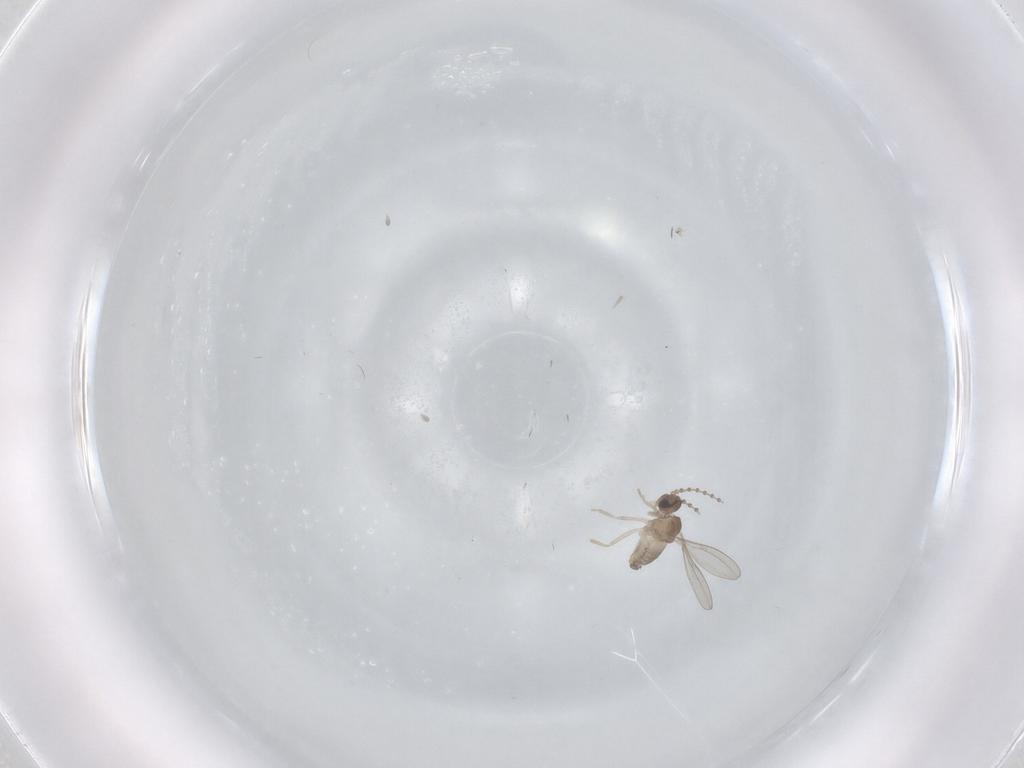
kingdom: Animalia
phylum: Arthropoda
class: Insecta
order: Diptera
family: Cecidomyiidae
